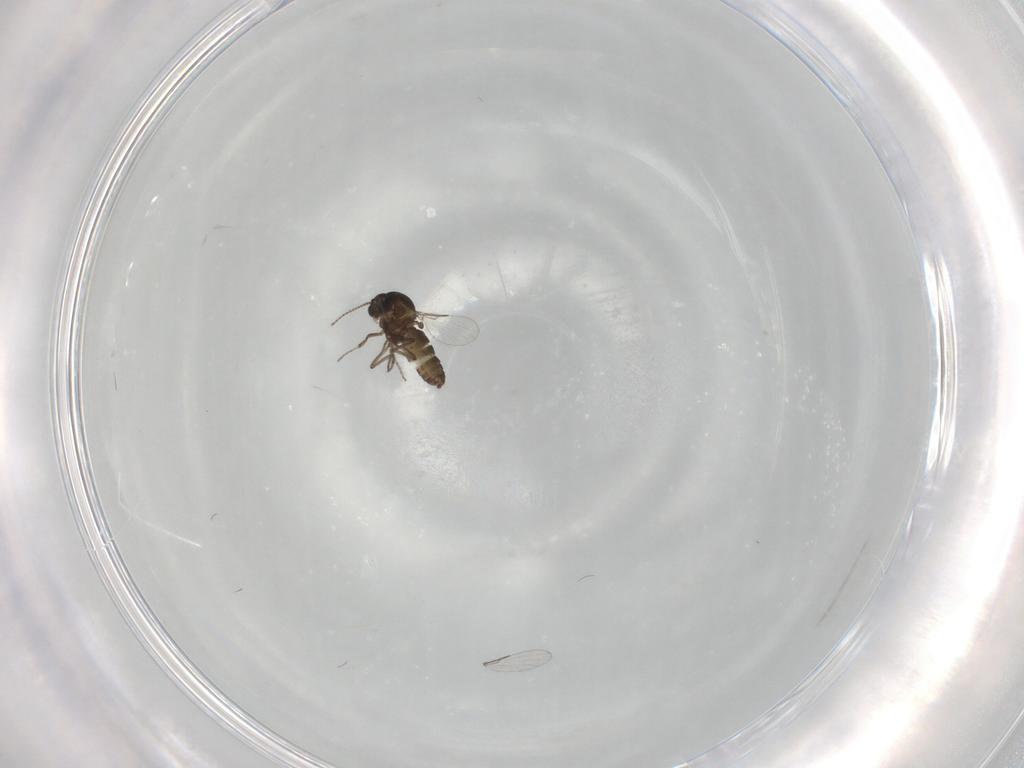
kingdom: Animalia
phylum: Arthropoda
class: Insecta
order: Diptera
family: Ceratopogonidae
